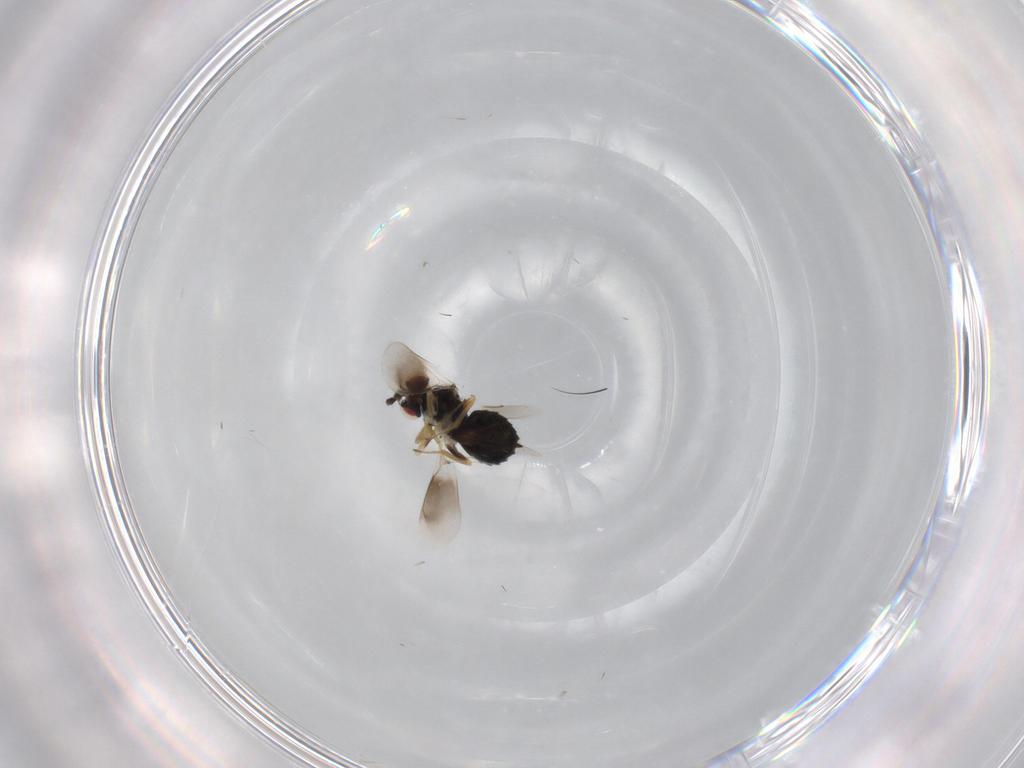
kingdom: Animalia
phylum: Arthropoda
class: Insecta
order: Hymenoptera
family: Eulophidae
